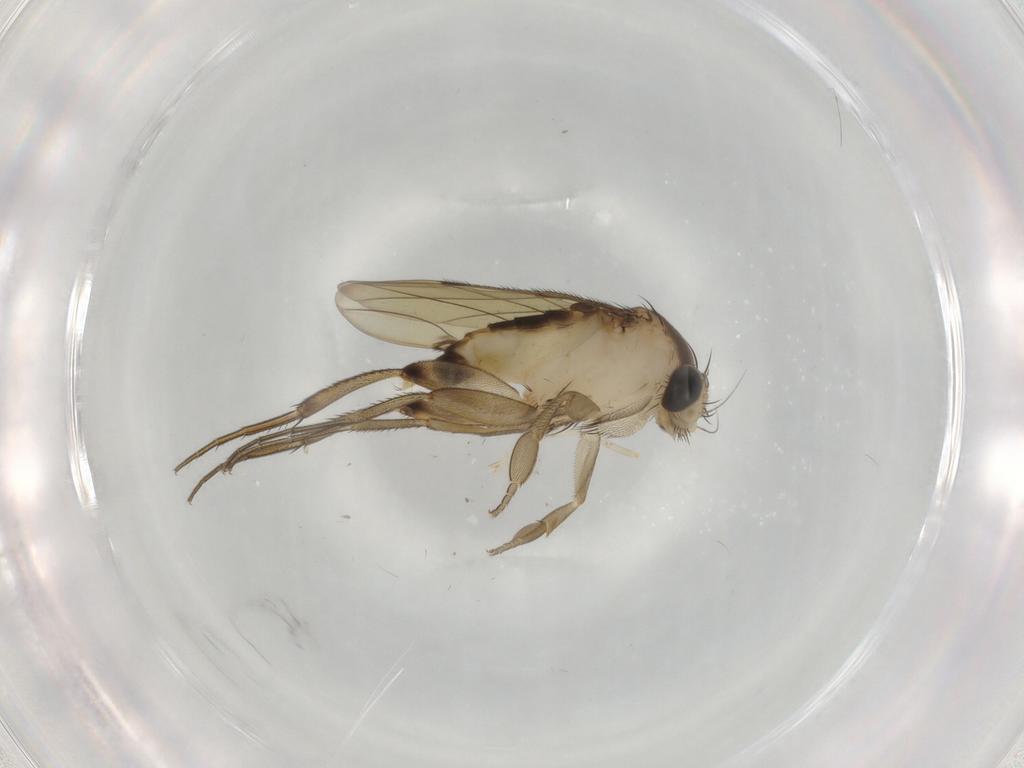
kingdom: Animalia
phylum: Arthropoda
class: Insecta
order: Diptera
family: Phoridae
